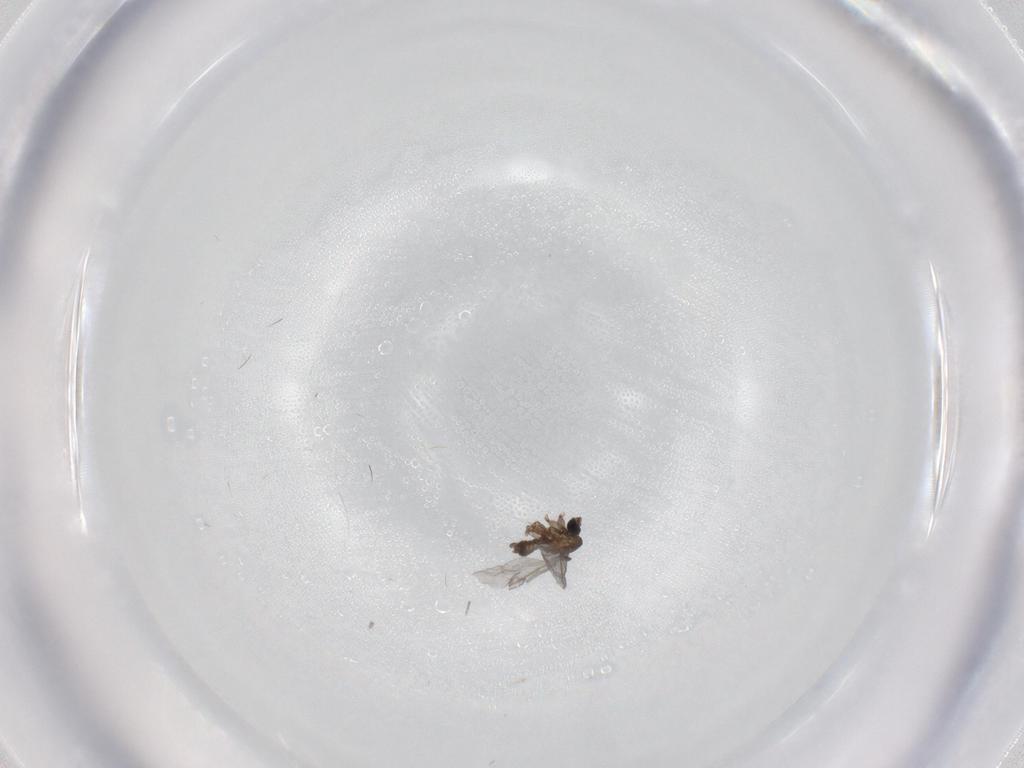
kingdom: Animalia
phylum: Arthropoda
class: Insecta
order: Diptera
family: Sciaridae
